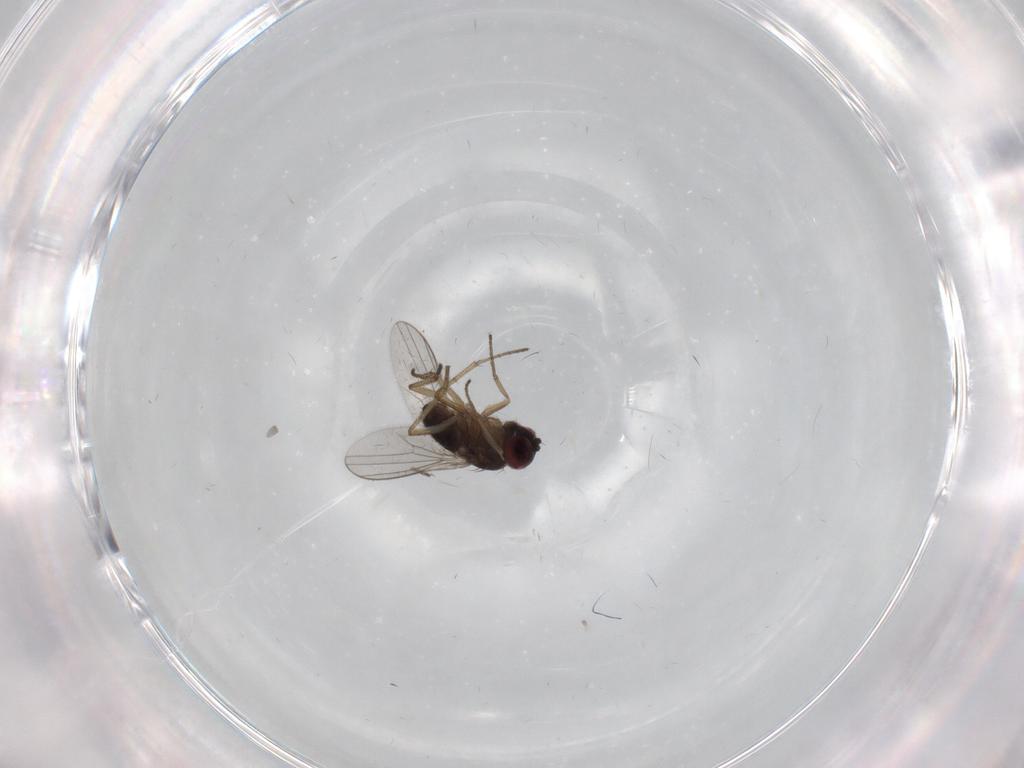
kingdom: Animalia
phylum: Arthropoda
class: Insecta
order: Diptera
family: Dolichopodidae
